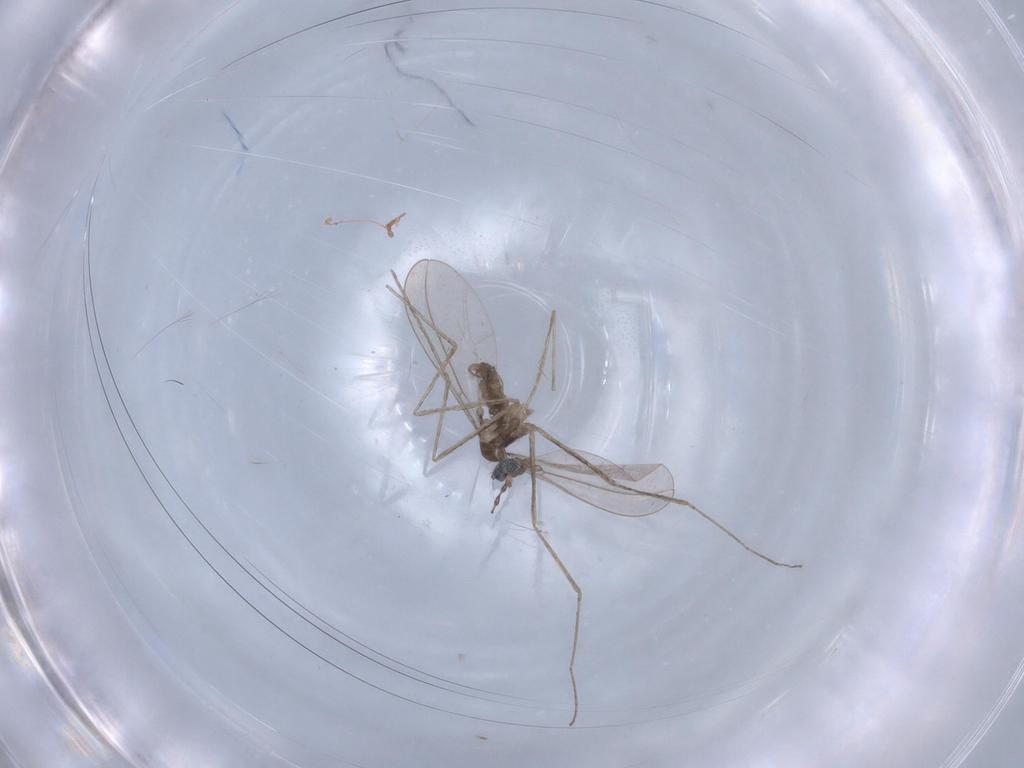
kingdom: Animalia
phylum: Arthropoda
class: Insecta
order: Diptera
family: Cecidomyiidae
